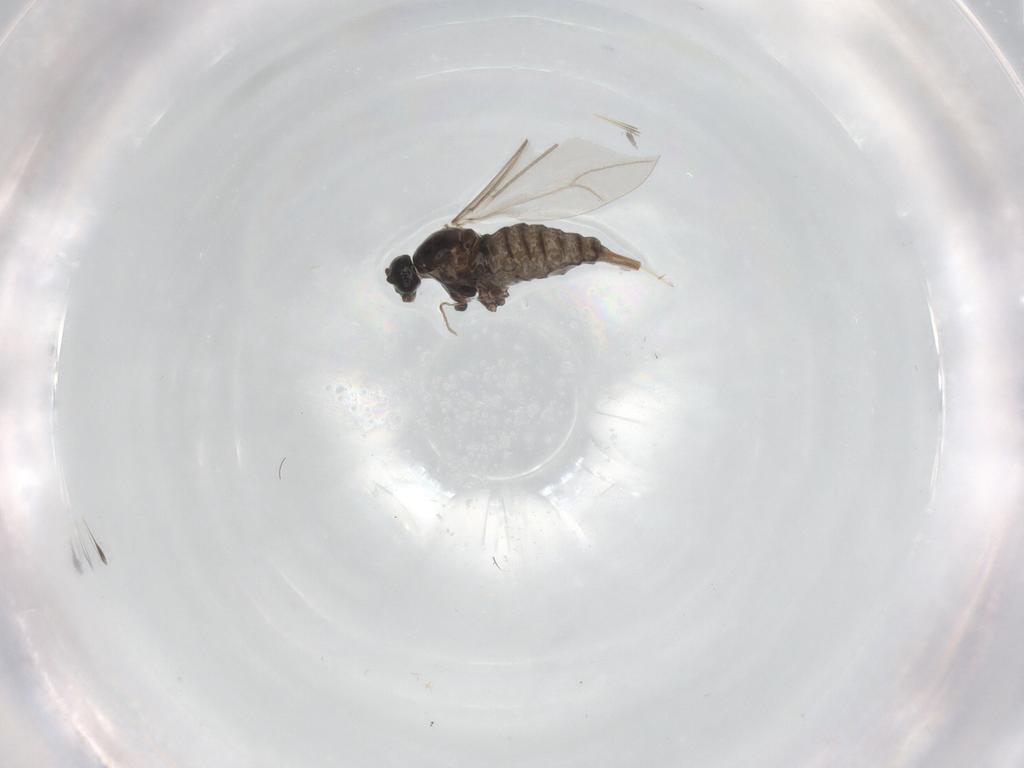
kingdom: Animalia
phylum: Arthropoda
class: Insecta
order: Diptera
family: Cecidomyiidae
